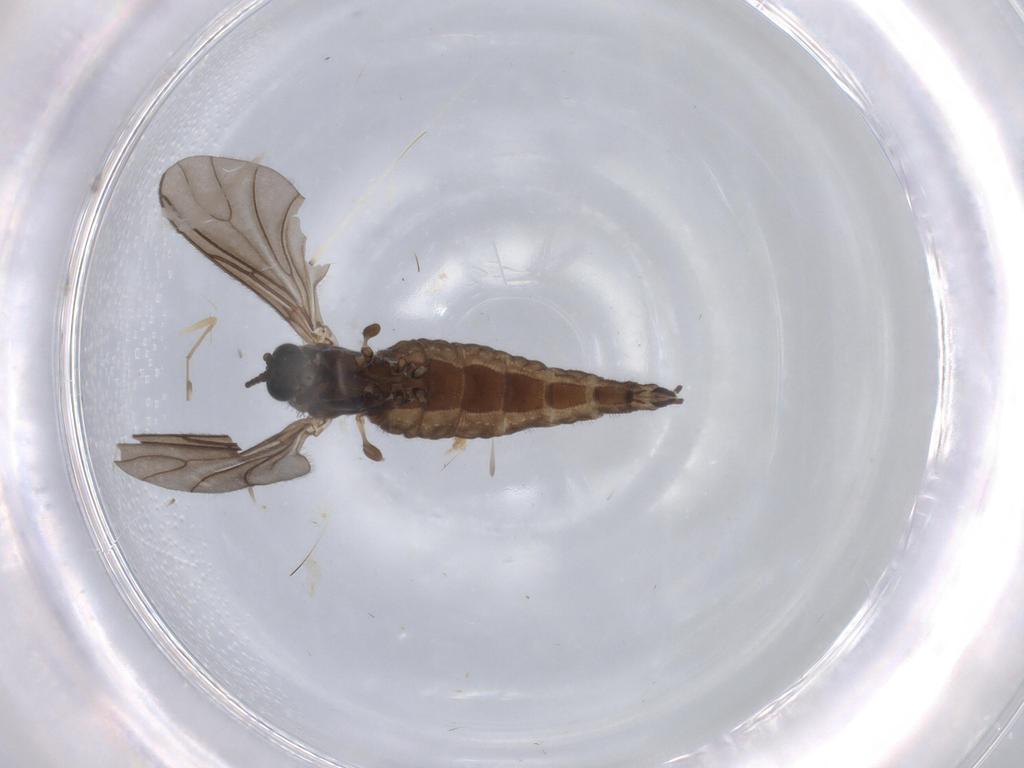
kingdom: Animalia
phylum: Arthropoda
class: Insecta
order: Diptera
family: Sciaridae
